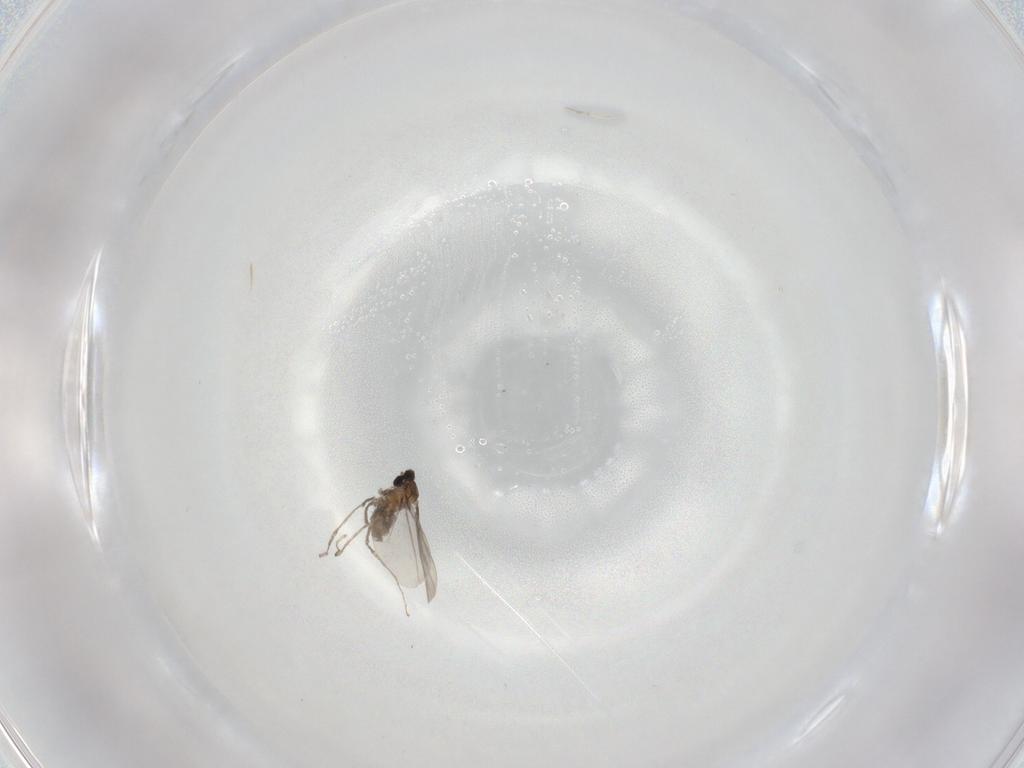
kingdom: Animalia
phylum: Arthropoda
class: Insecta
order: Diptera
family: Cecidomyiidae
